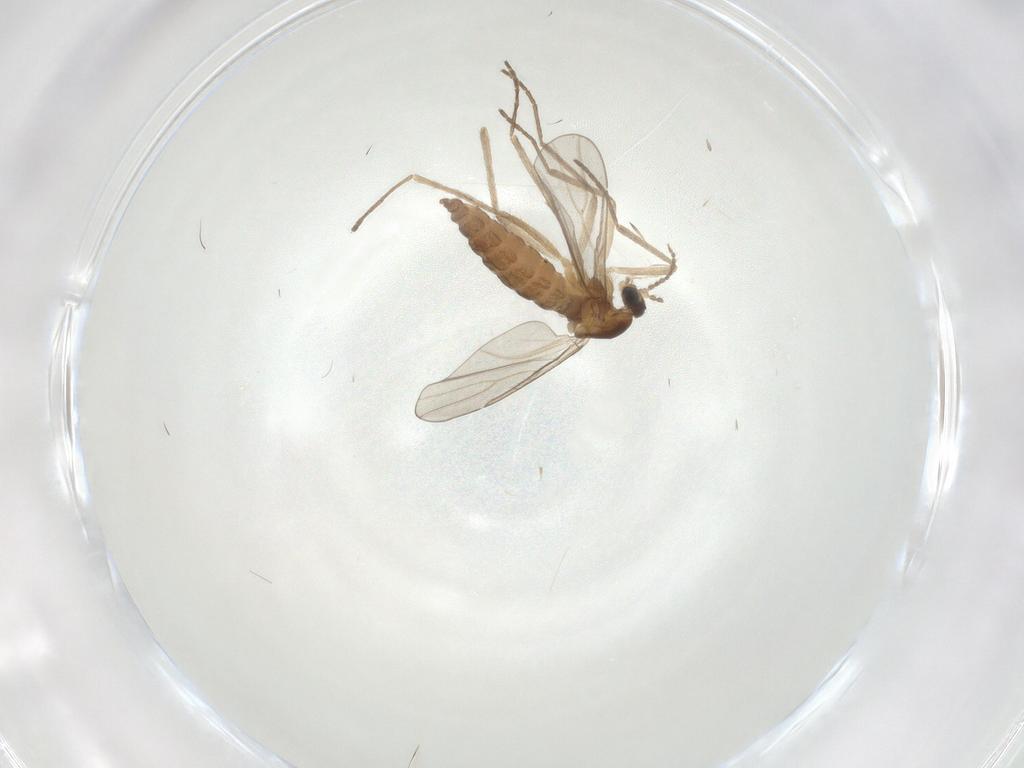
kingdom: Animalia
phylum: Arthropoda
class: Insecta
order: Diptera
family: Cecidomyiidae
